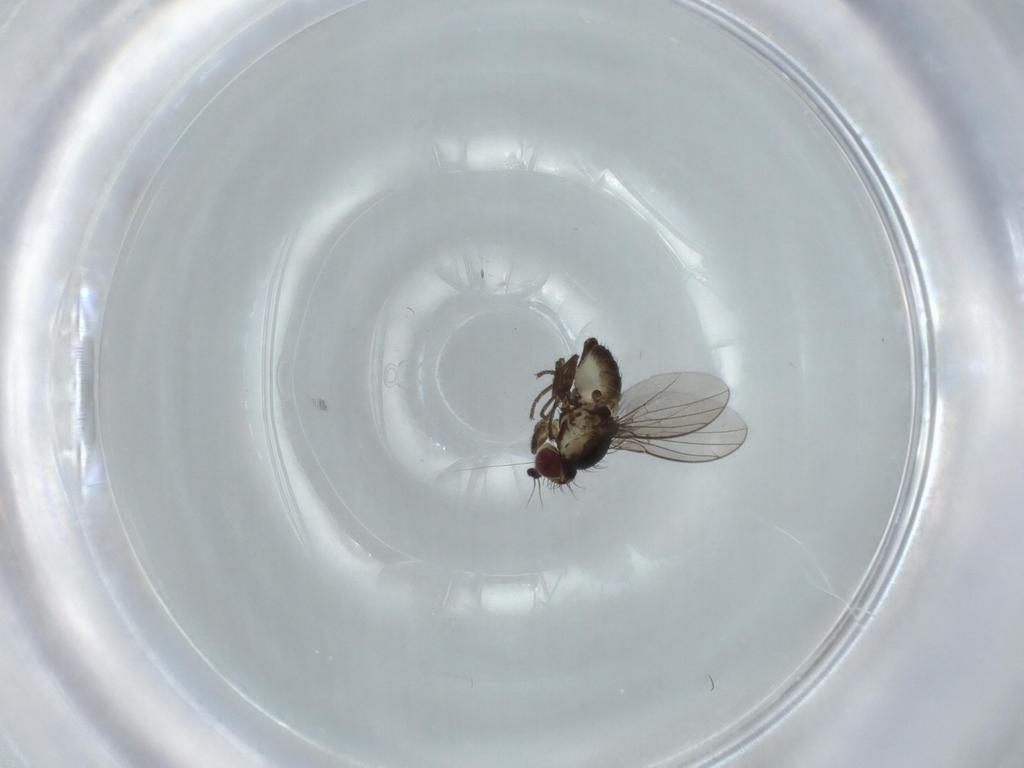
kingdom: Animalia
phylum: Arthropoda
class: Insecta
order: Diptera
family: Agromyzidae
